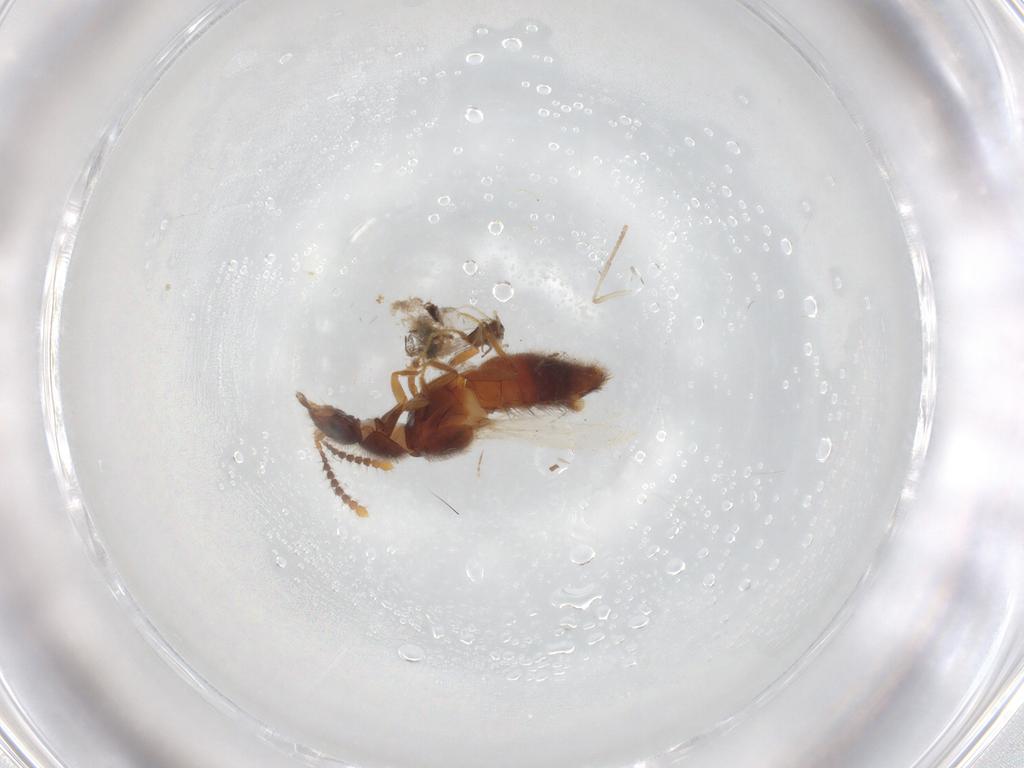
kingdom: Animalia
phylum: Arthropoda
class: Insecta
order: Coleoptera
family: Staphylinidae
